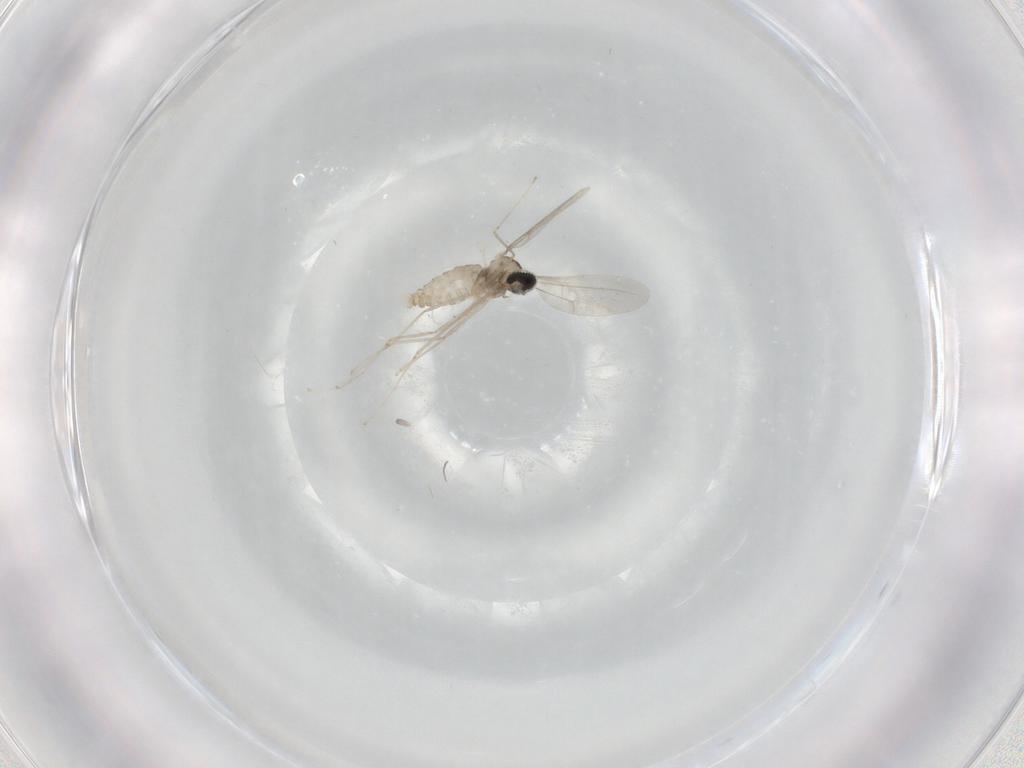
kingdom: Animalia
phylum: Arthropoda
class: Insecta
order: Diptera
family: Cecidomyiidae
